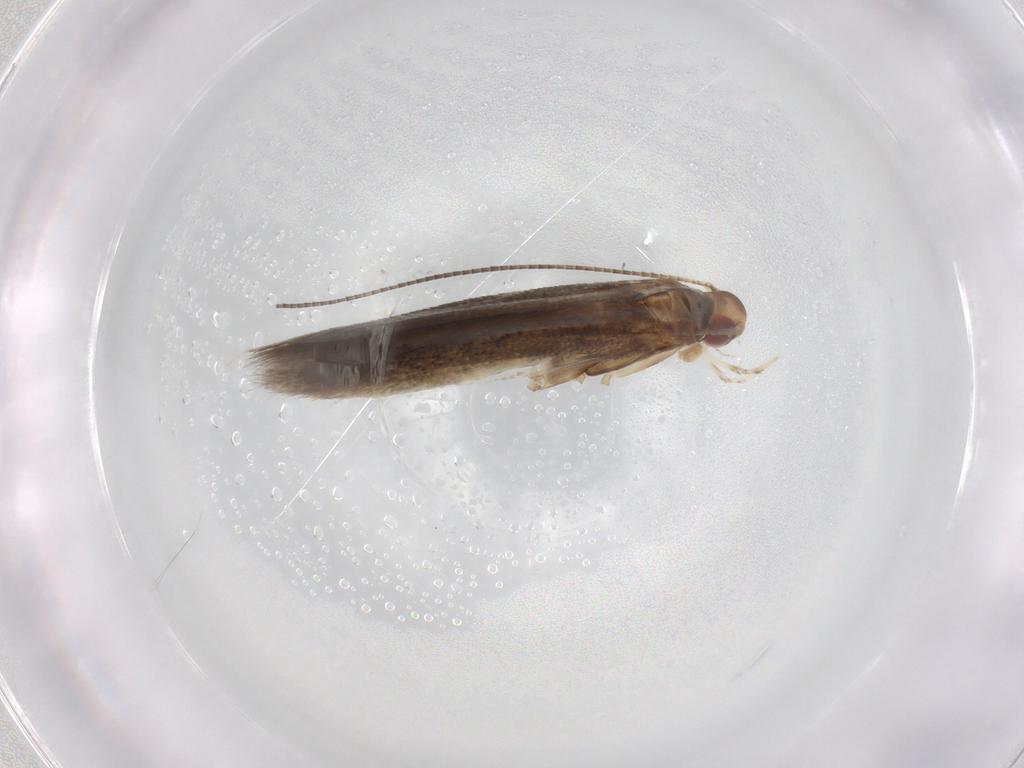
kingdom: Animalia
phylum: Arthropoda
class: Insecta
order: Lepidoptera
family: Gracillariidae
